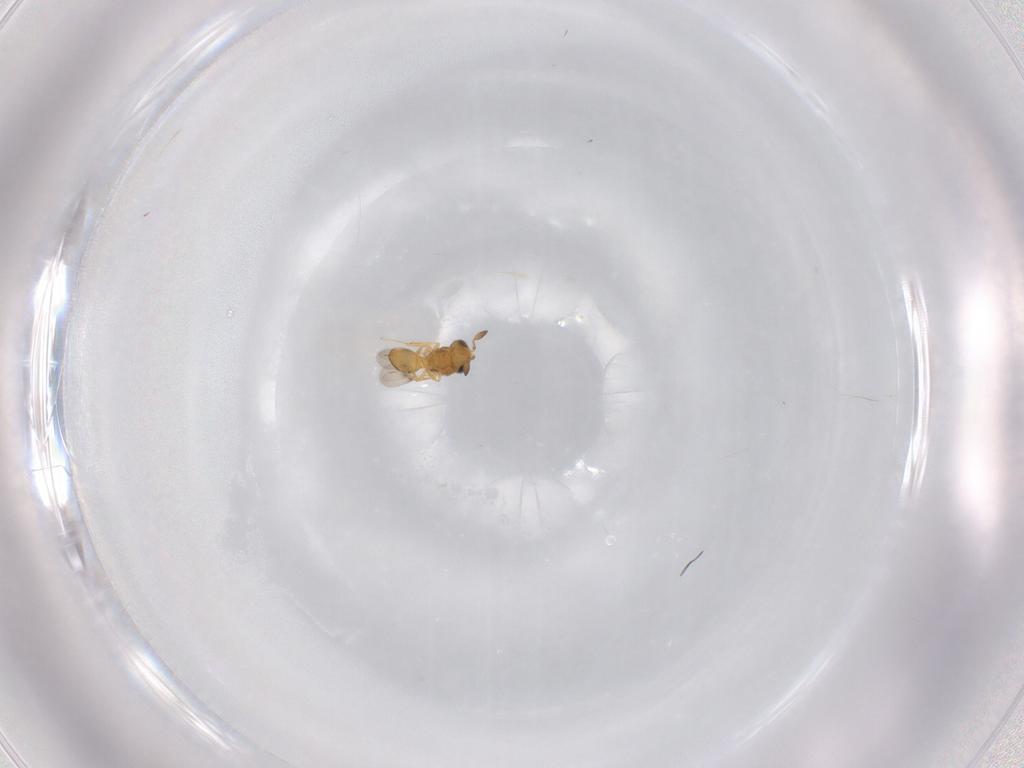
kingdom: Animalia
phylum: Arthropoda
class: Insecta
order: Hymenoptera
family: Scelionidae
